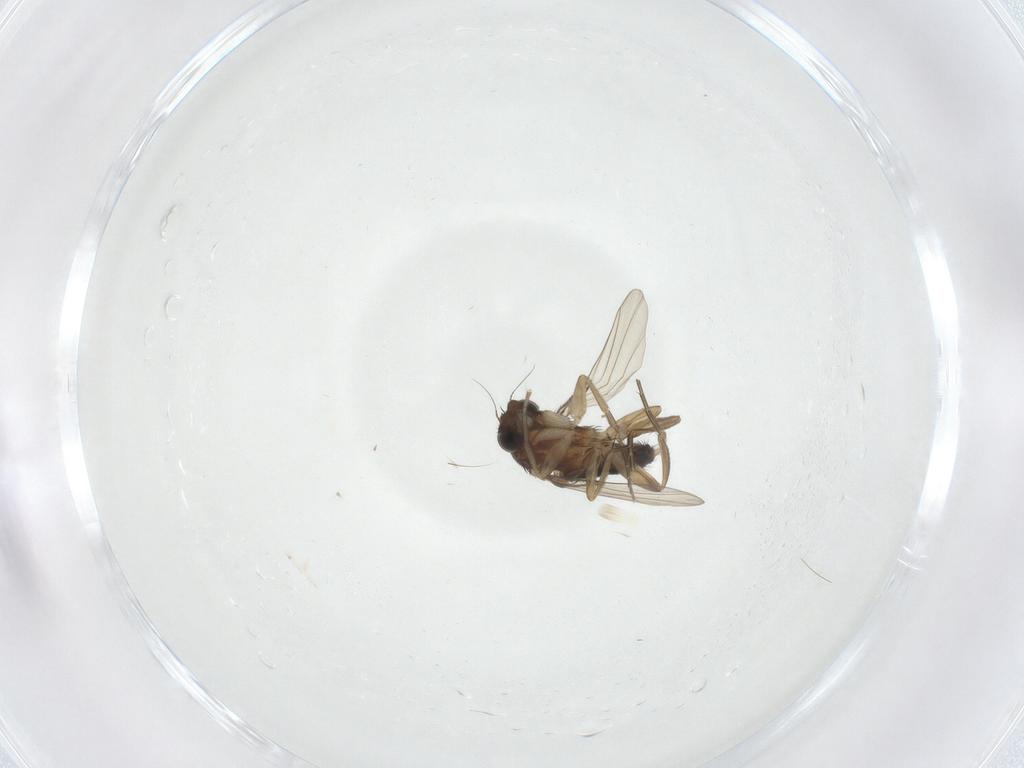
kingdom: Animalia
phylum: Arthropoda
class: Insecta
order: Diptera
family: Phoridae
